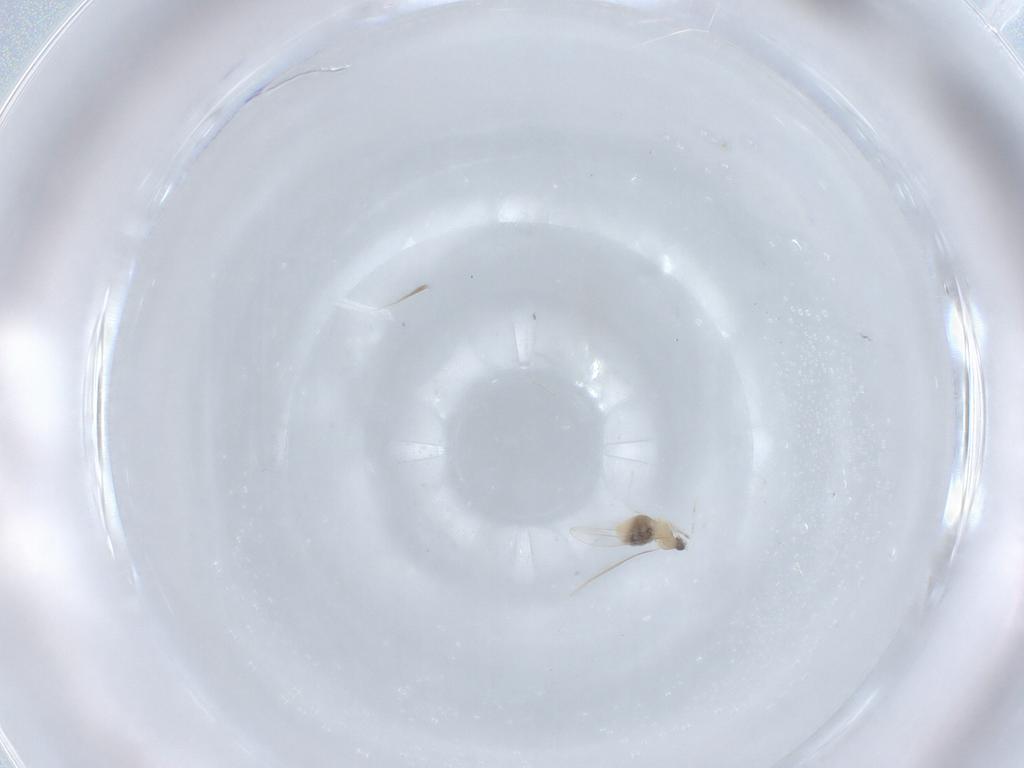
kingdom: Animalia
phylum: Arthropoda
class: Insecta
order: Diptera
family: Cecidomyiidae
